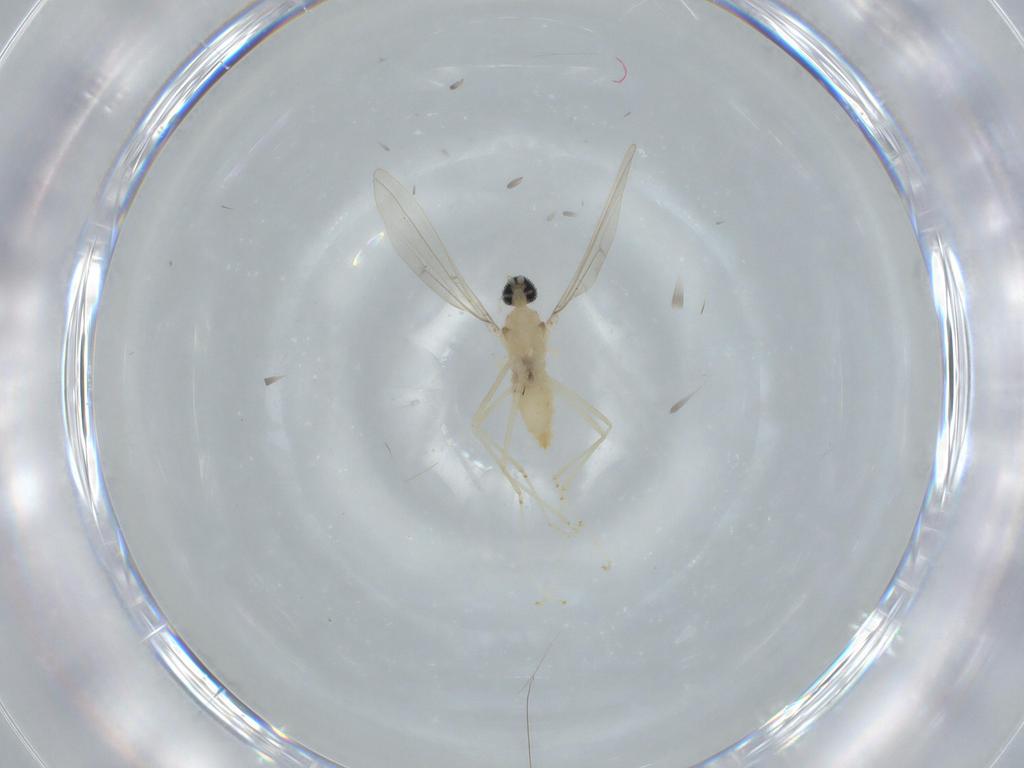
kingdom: Animalia
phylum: Arthropoda
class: Insecta
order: Diptera
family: Cecidomyiidae
